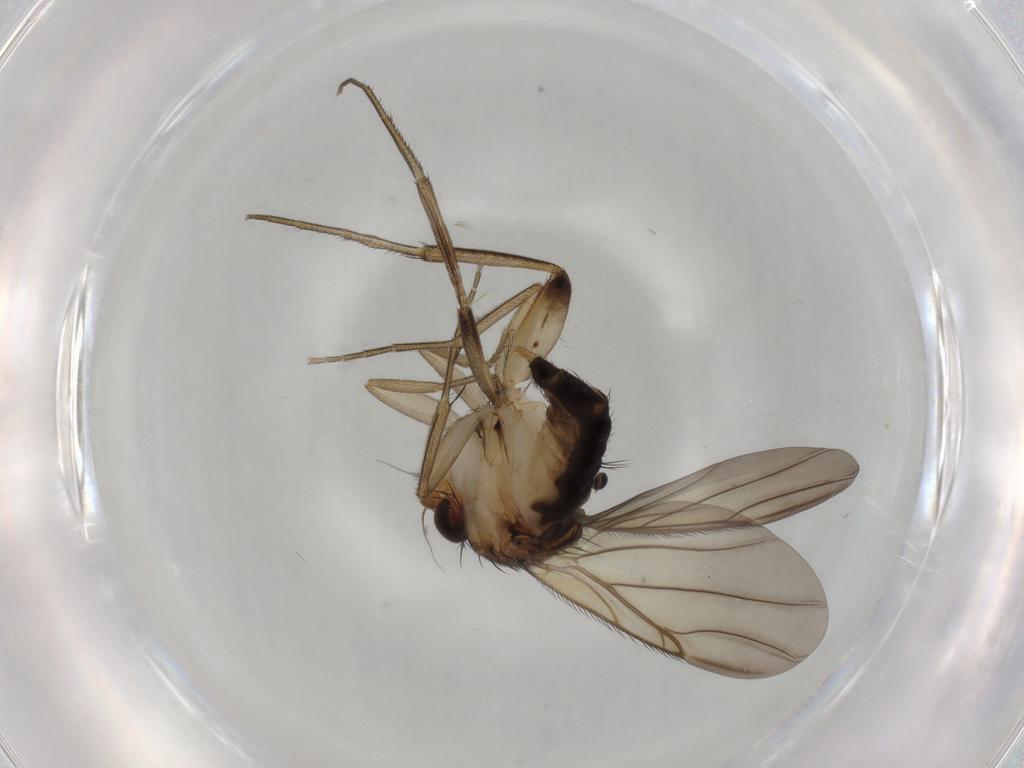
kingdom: Animalia
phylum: Arthropoda
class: Insecta
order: Diptera
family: Phoridae
